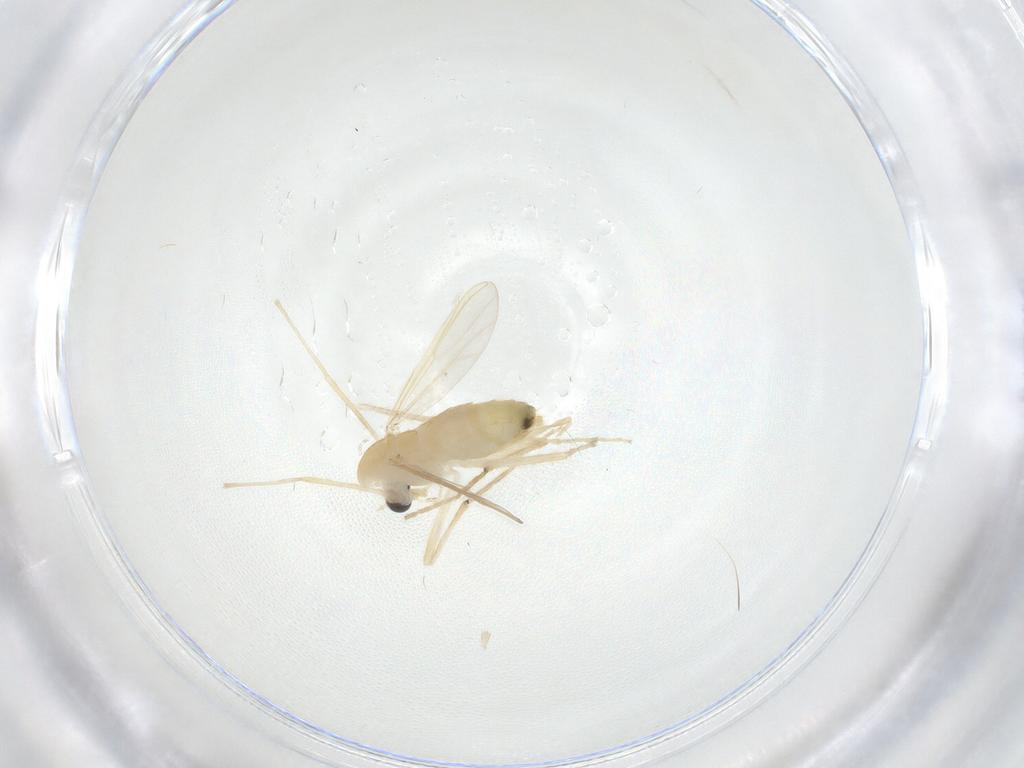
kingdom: Animalia
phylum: Arthropoda
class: Insecta
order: Diptera
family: Chironomidae
